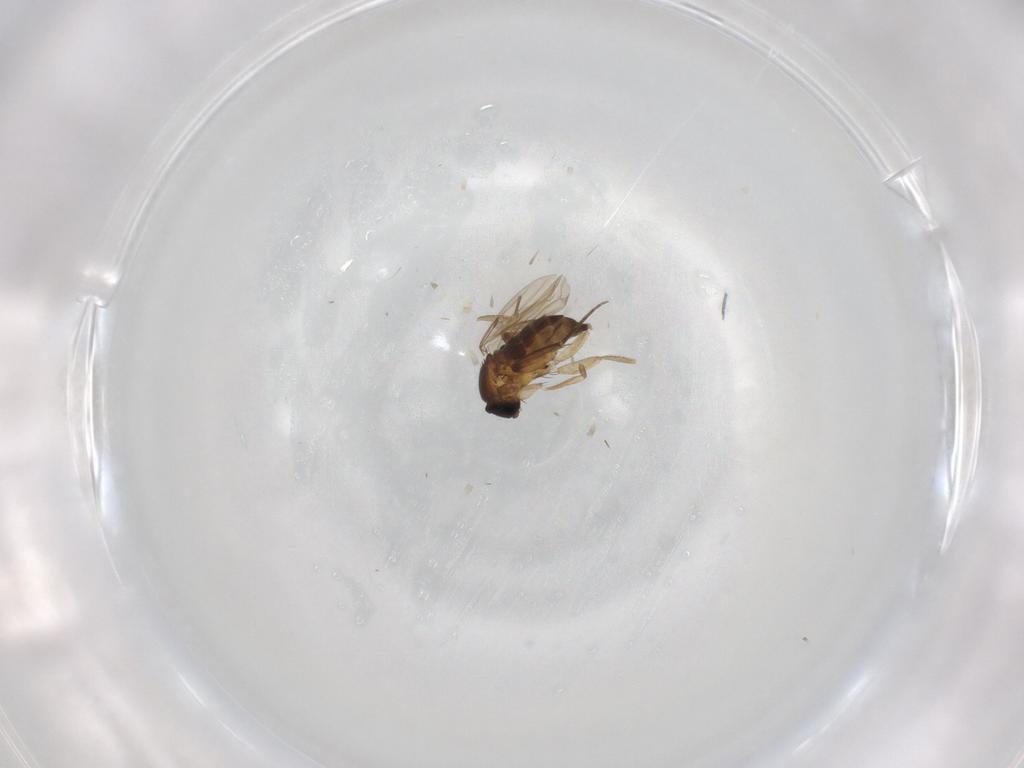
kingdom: Animalia
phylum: Arthropoda
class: Insecta
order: Diptera
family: Phoridae
